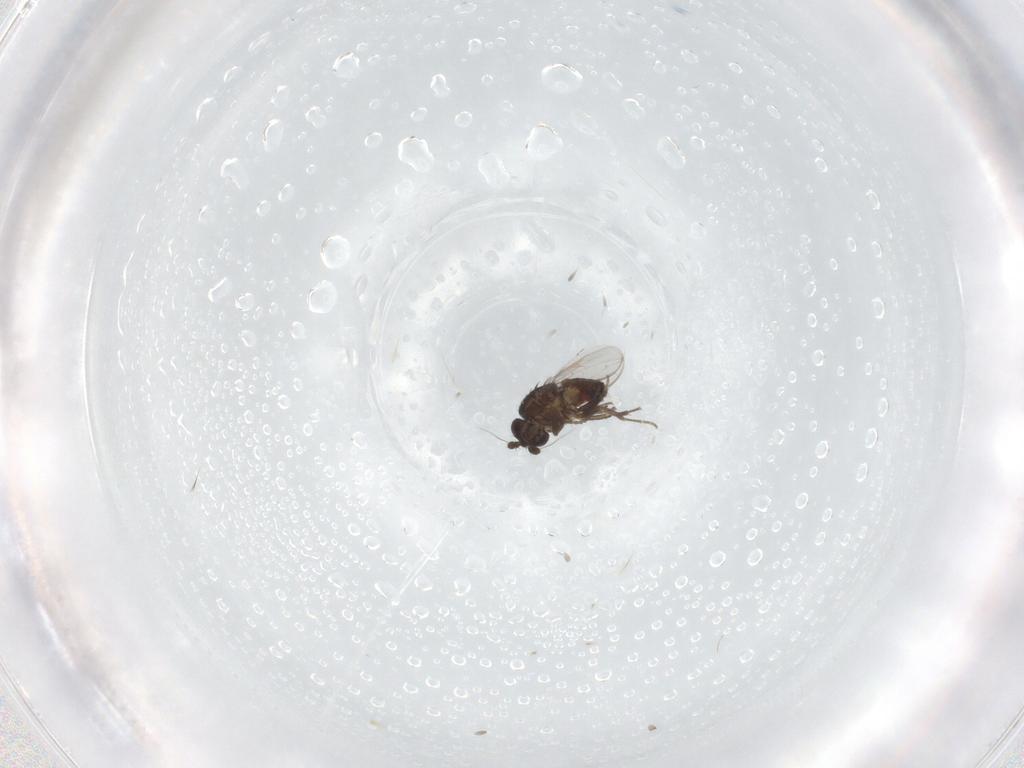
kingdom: Animalia
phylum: Arthropoda
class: Insecta
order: Diptera
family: Sphaeroceridae
